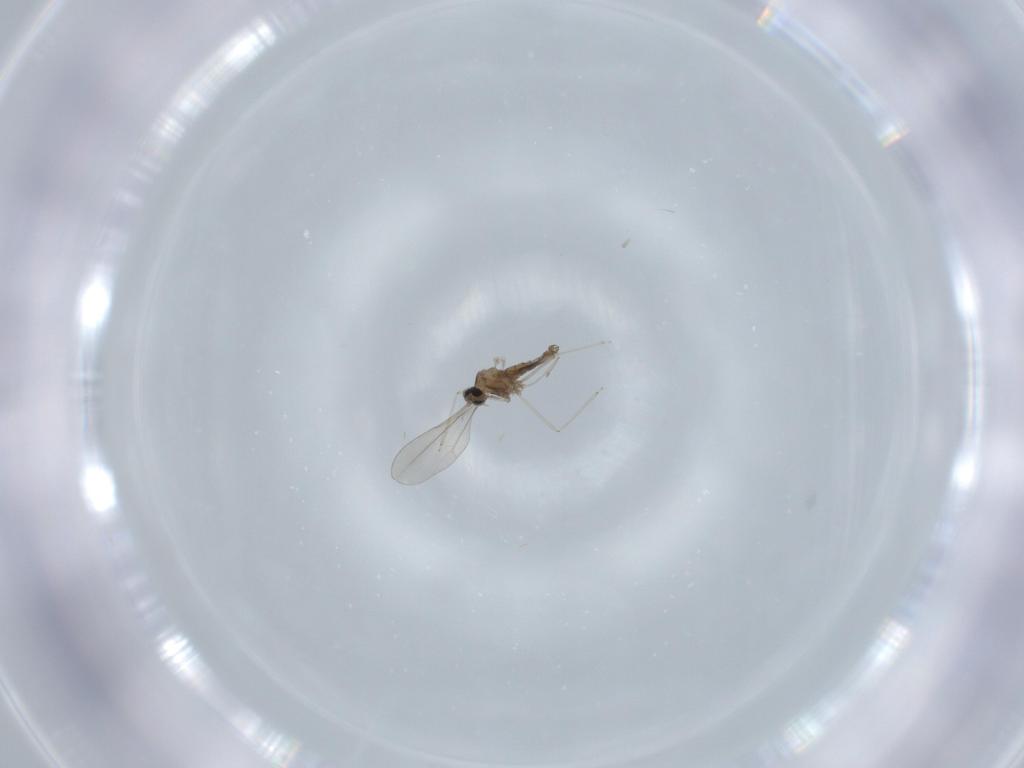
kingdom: Animalia
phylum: Arthropoda
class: Insecta
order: Diptera
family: Cecidomyiidae
